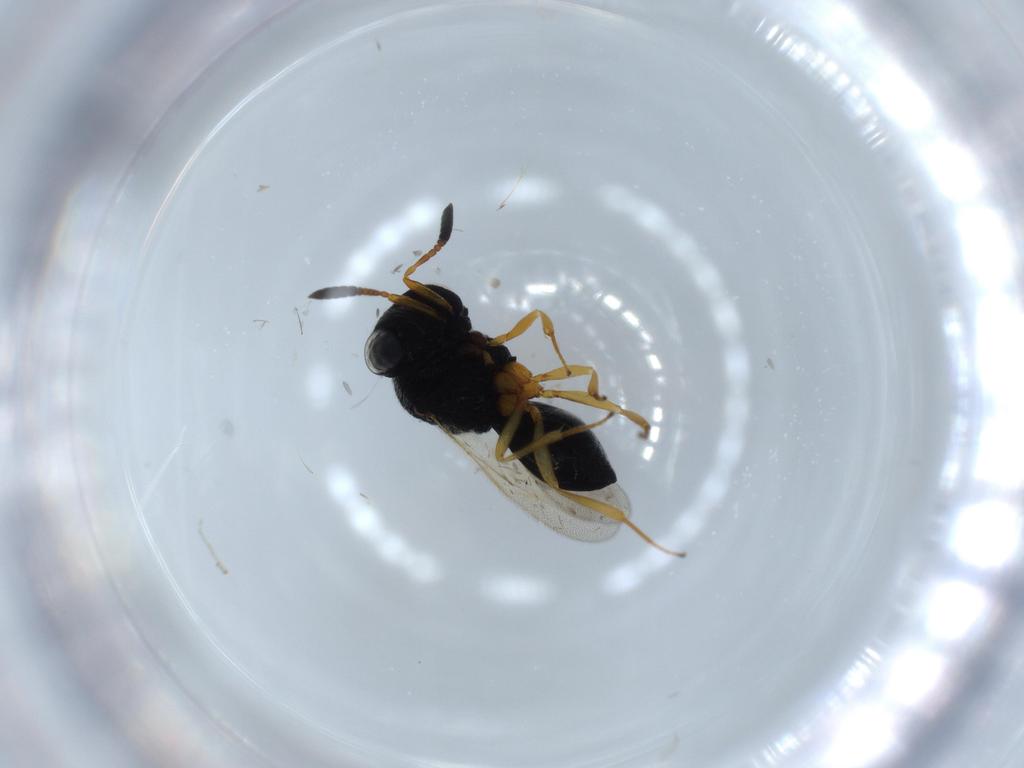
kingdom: Animalia
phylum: Arthropoda
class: Insecta
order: Hymenoptera
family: Scelionidae
